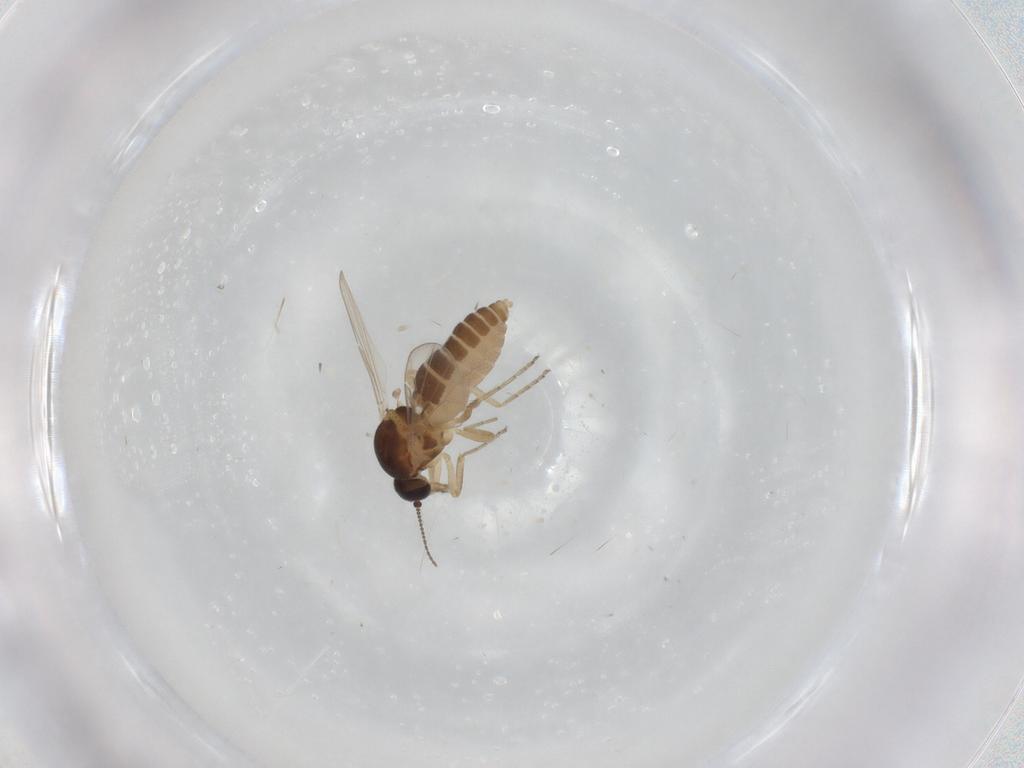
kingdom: Animalia
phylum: Arthropoda
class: Insecta
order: Diptera
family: Ceratopogonidae
